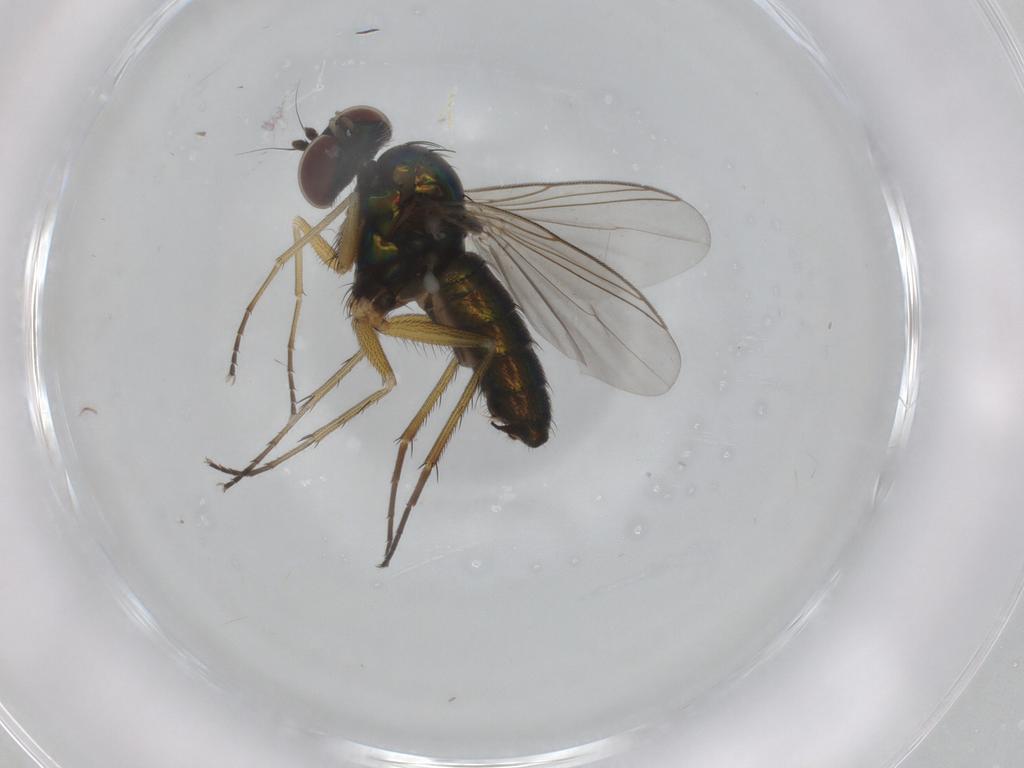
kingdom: Animalia
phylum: Arthropoda
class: Insecta
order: Diptera
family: Dolichopodidae
